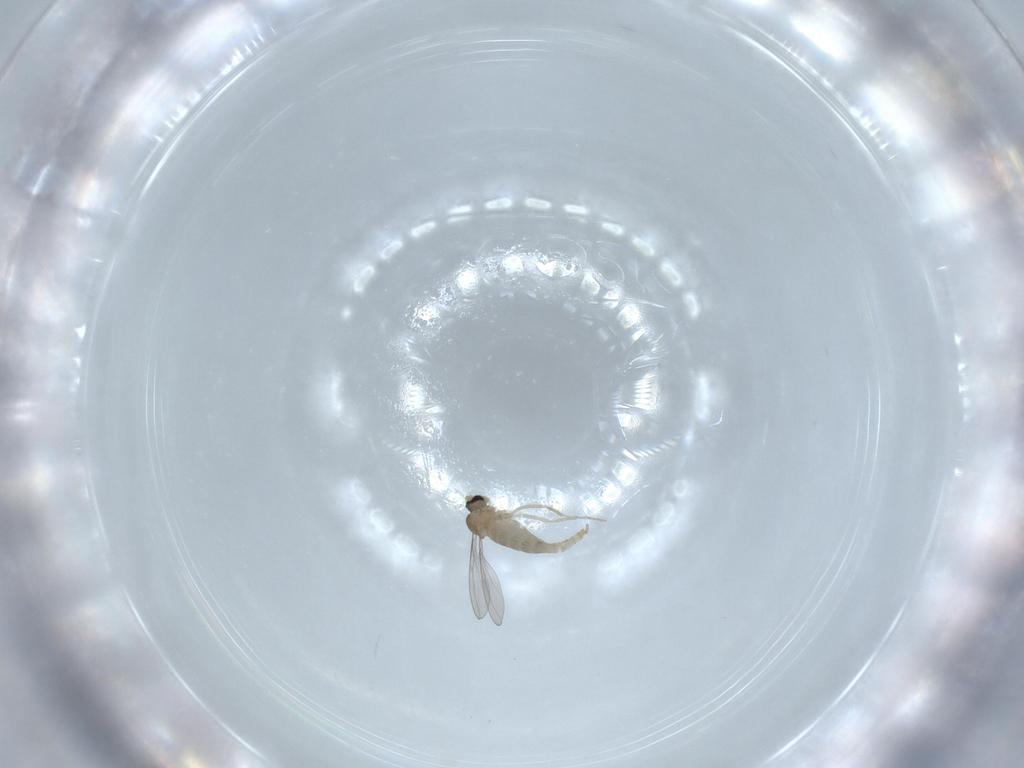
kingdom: Animalia
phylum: Arthropoda
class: Insecta
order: Diptera
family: Cecidomyiidae
